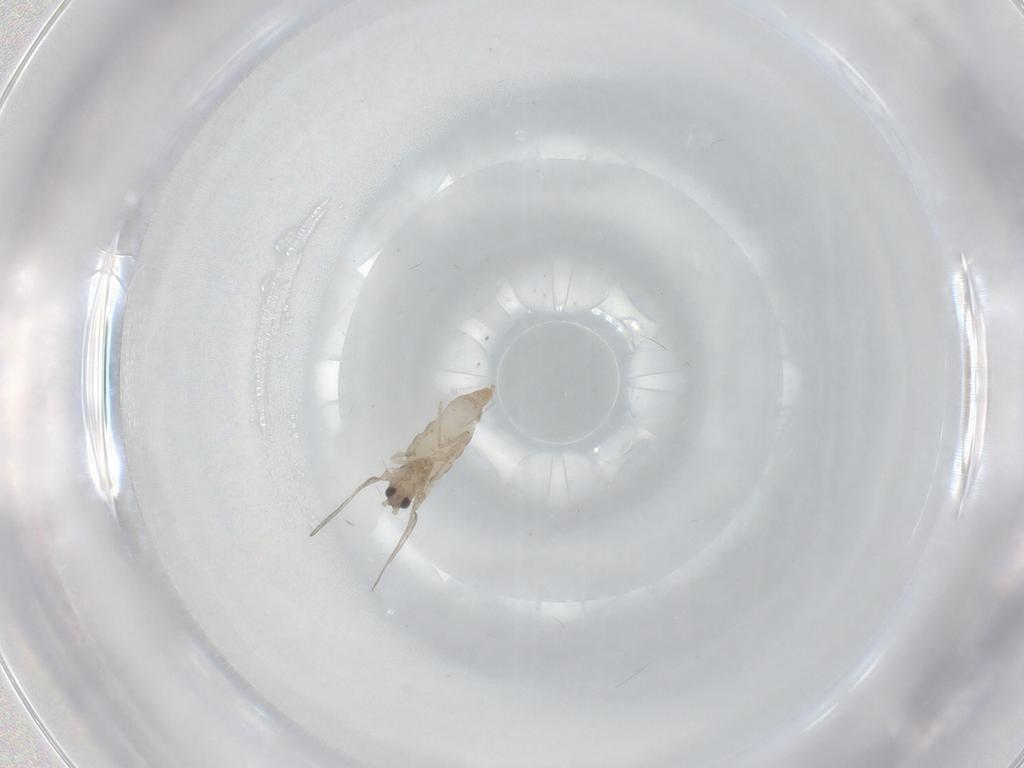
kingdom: Animalia
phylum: Arthropoda
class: Insecta
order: Diptera
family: Cecidomyiidae
